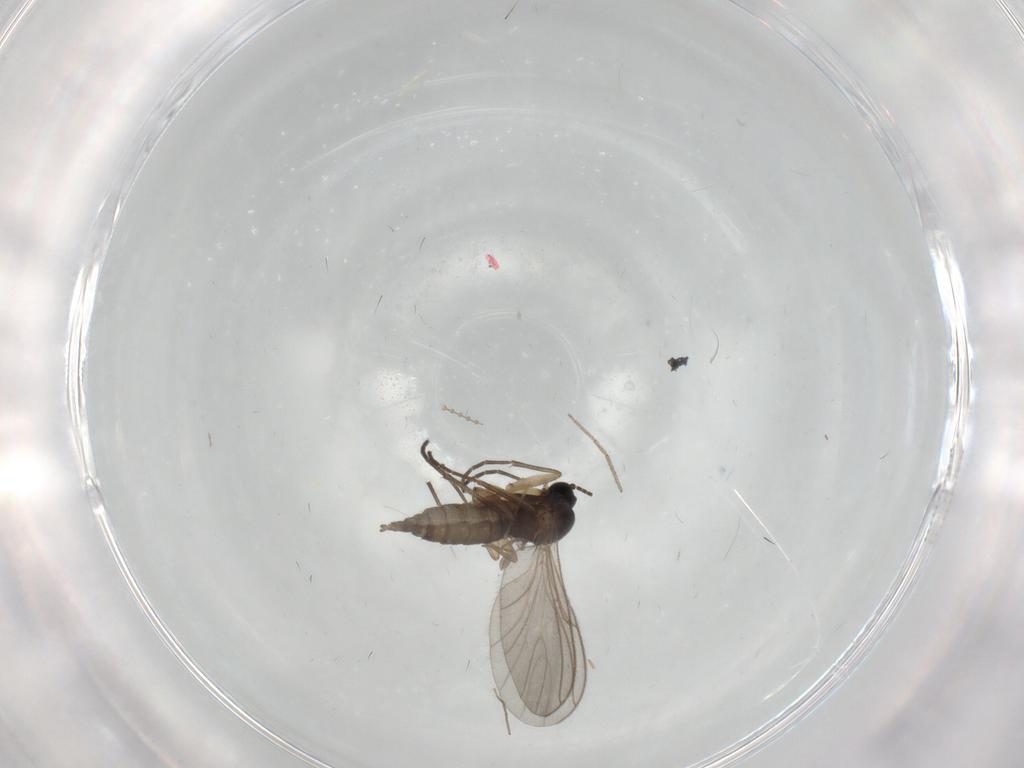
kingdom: Animalia
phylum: Arthropoda
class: Insecta
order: Diptera
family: Sciaridae
